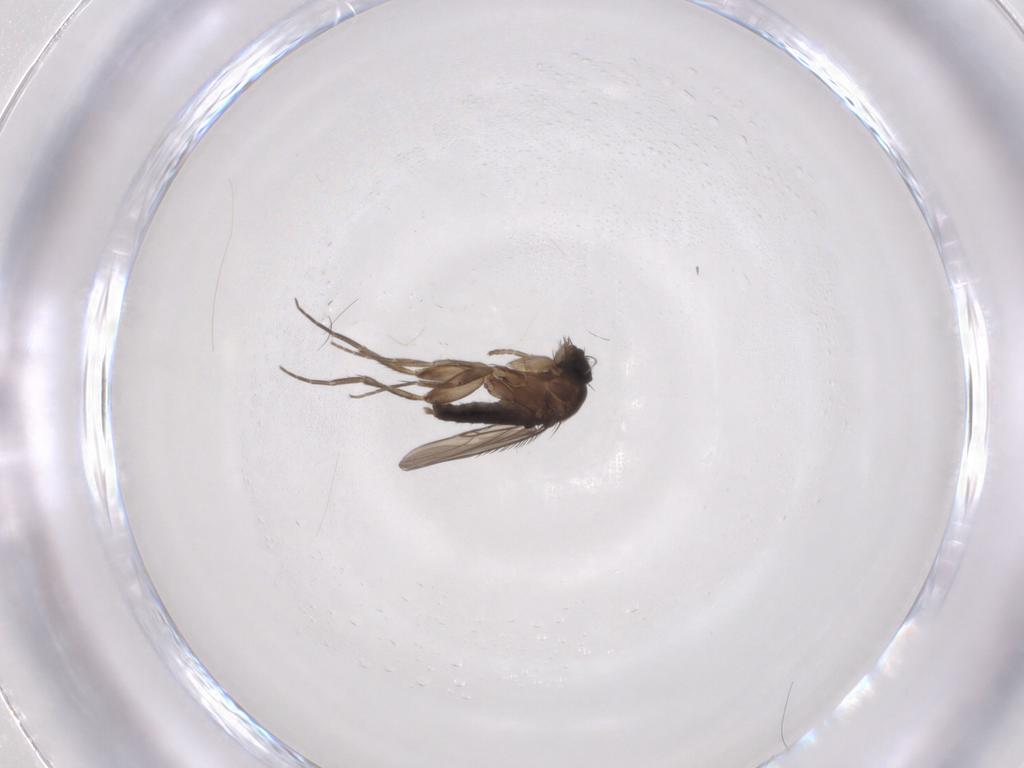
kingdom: Animalia
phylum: Arthropoda
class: Insecta
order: Diptera
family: Phoridae
